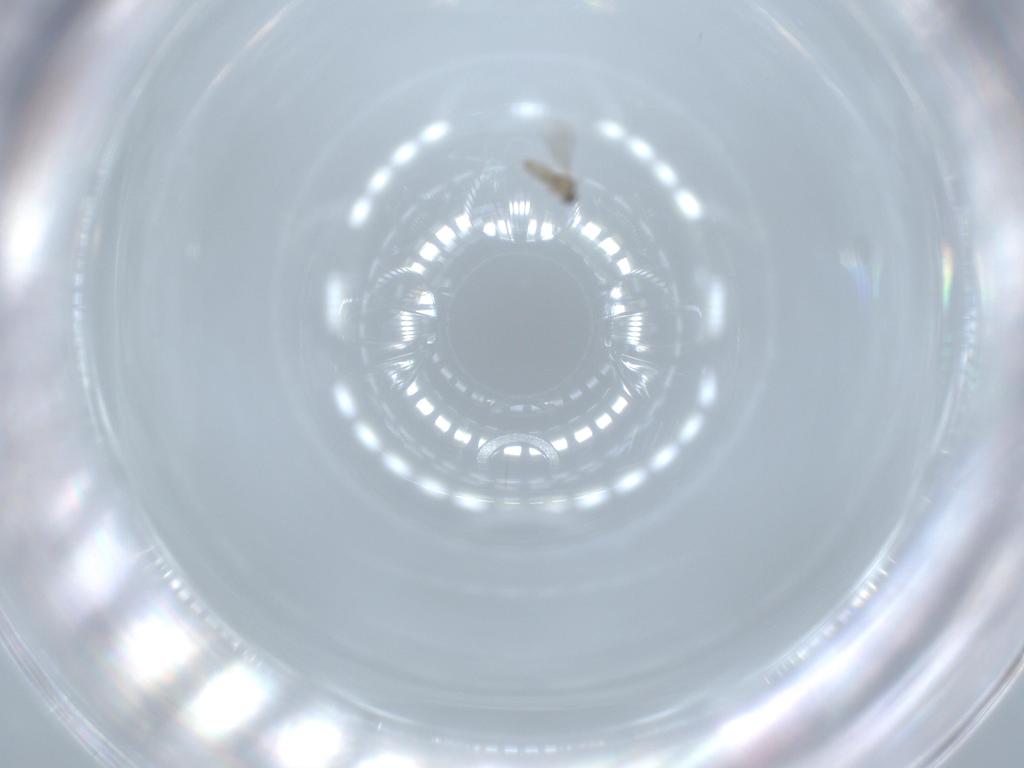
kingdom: Animalia
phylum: Arthropoda
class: Insecta
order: Diptera
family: Cecidomyiidae
